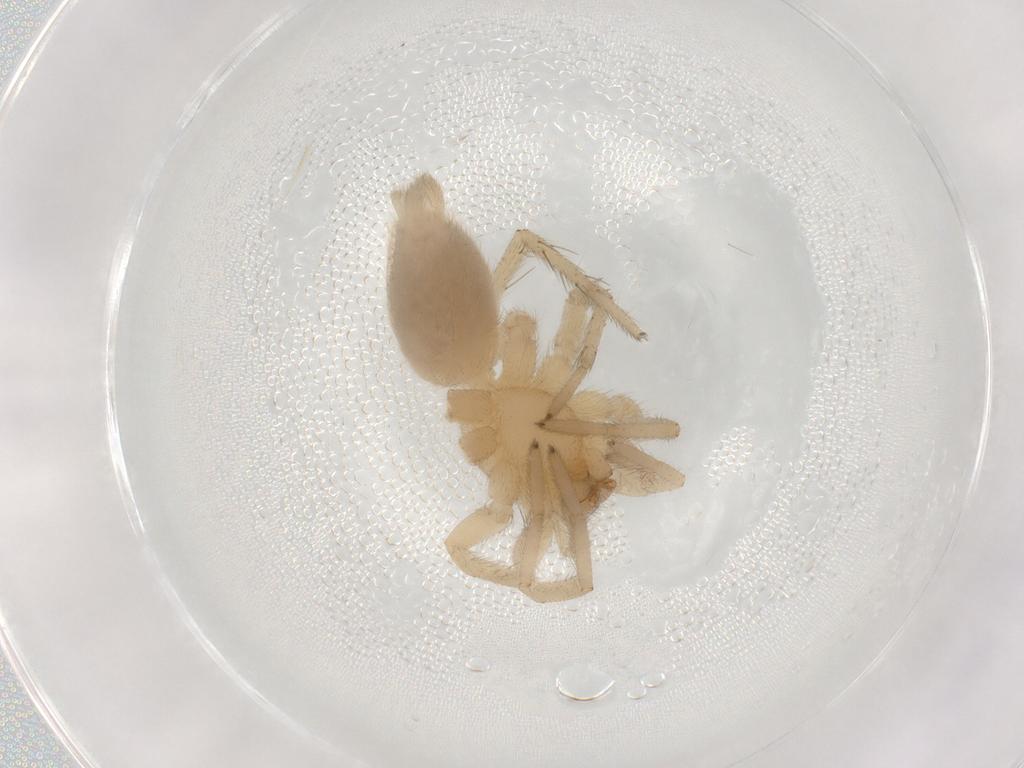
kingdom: Animalia
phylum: Arthropoda
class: Arachnida
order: Araneae
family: Gnaphosidae
